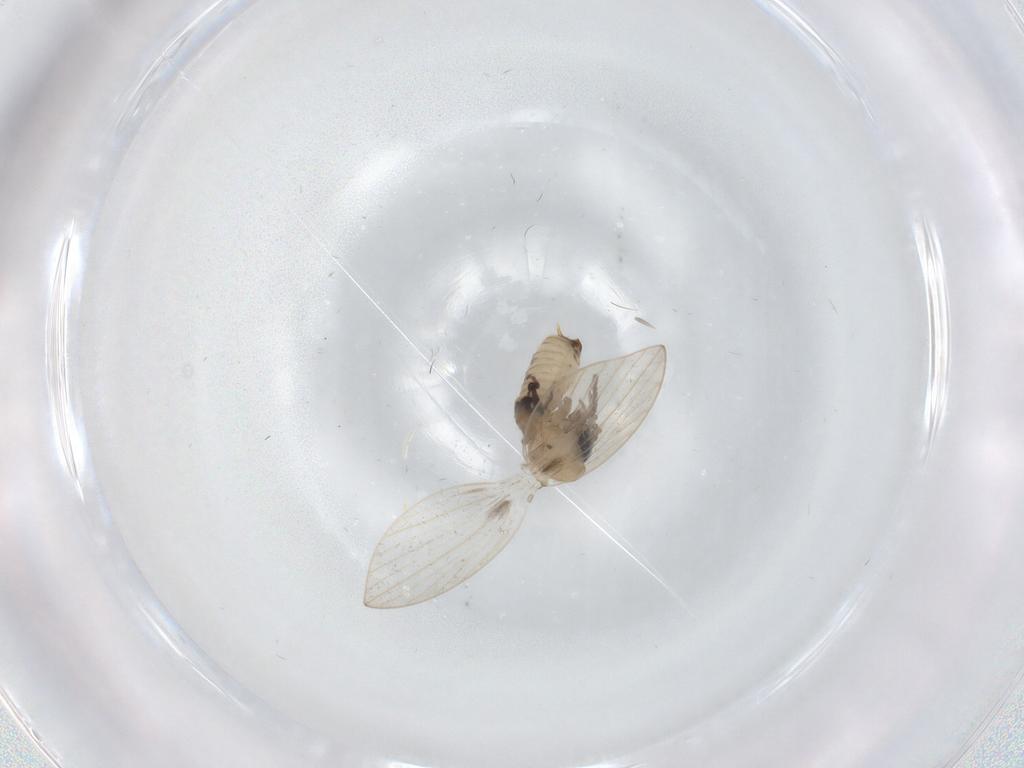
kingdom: Animalia
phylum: Arthropoda
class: Insecta
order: Diptera
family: Psychodidae
